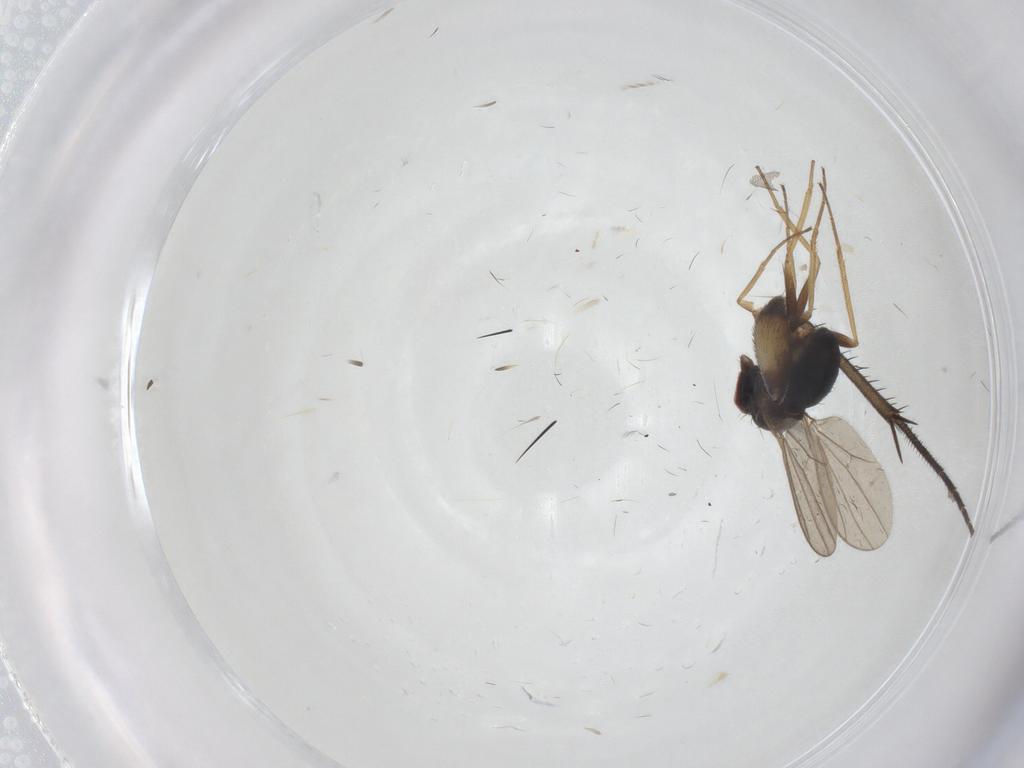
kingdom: Animalia
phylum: Arthropoda
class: Insecta
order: Diptera
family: Dolichopodidae
